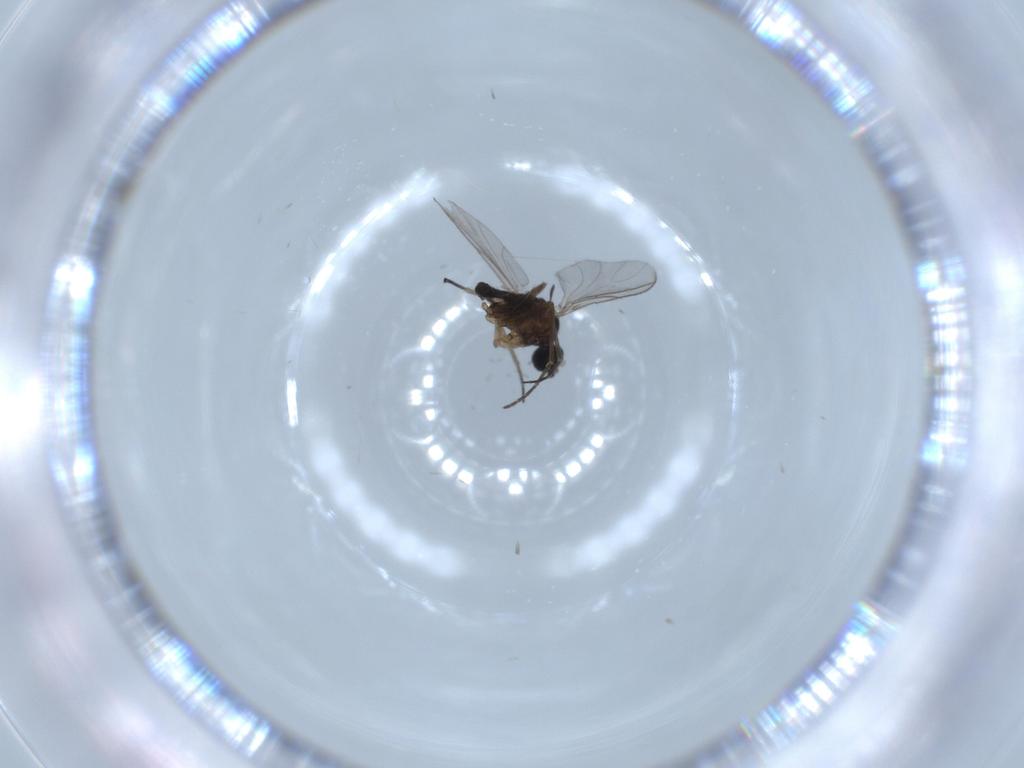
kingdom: Animalia
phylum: Arthropoda
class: Insecta
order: Diptera
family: Sciaridae
